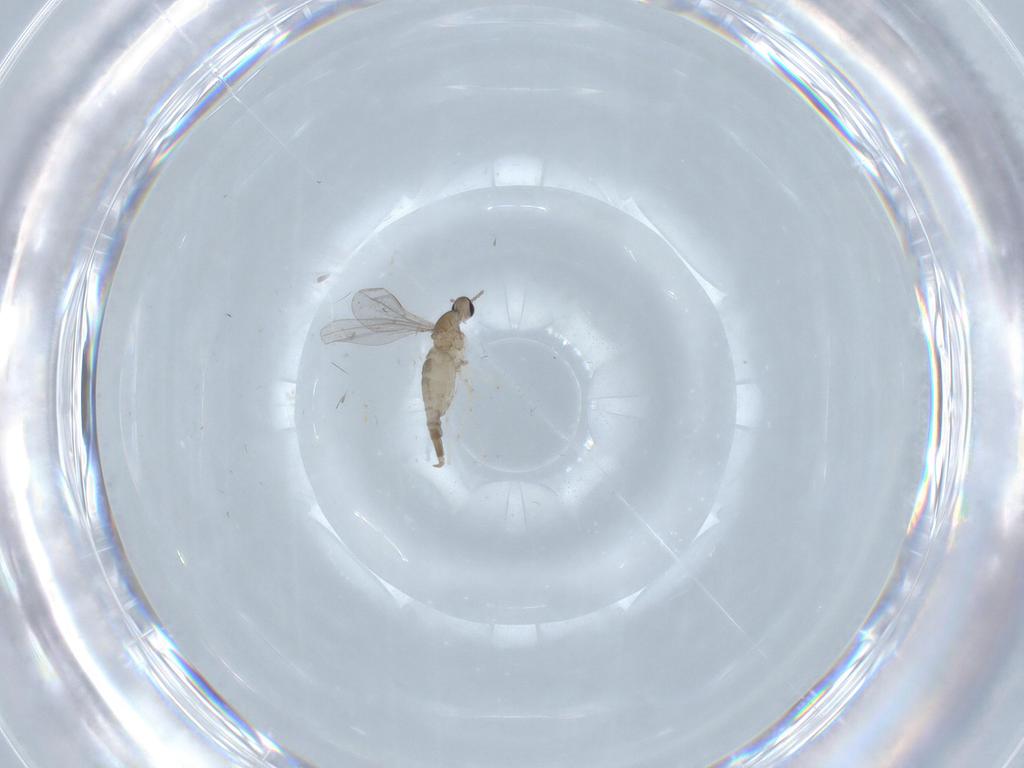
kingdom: Animalia
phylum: Arthropoda
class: Insecta
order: Diptera
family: Cecidomyiidae
